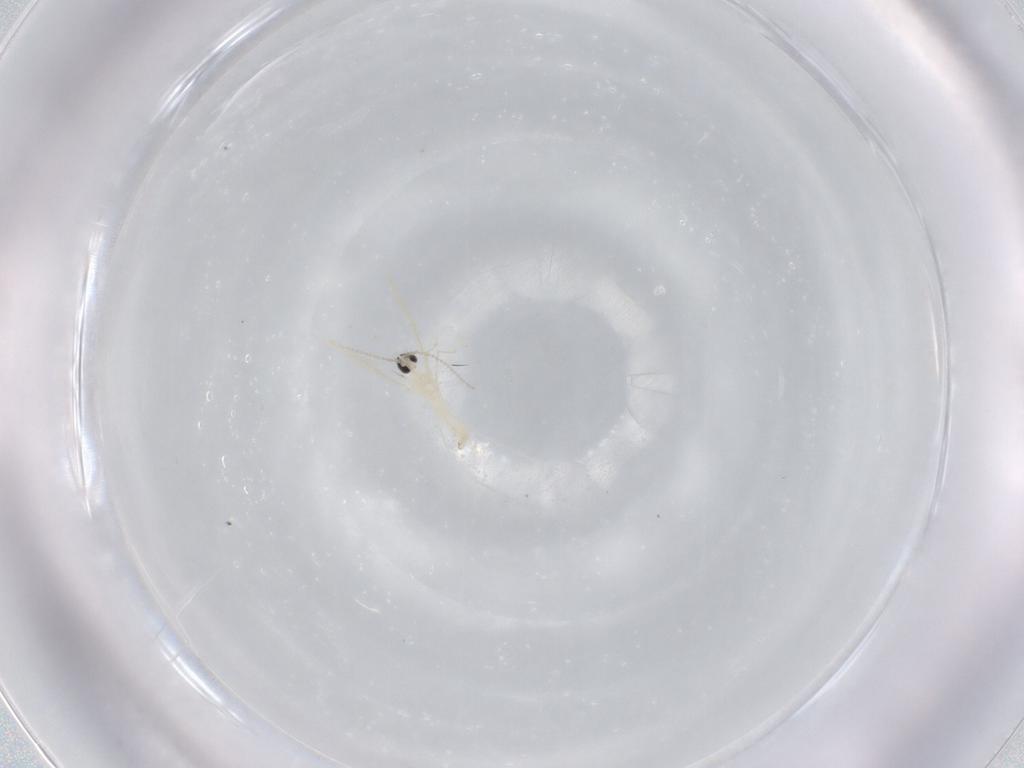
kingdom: Animalia
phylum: Arthropoda
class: Insecta
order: Diptera
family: Cecidomyiidae
